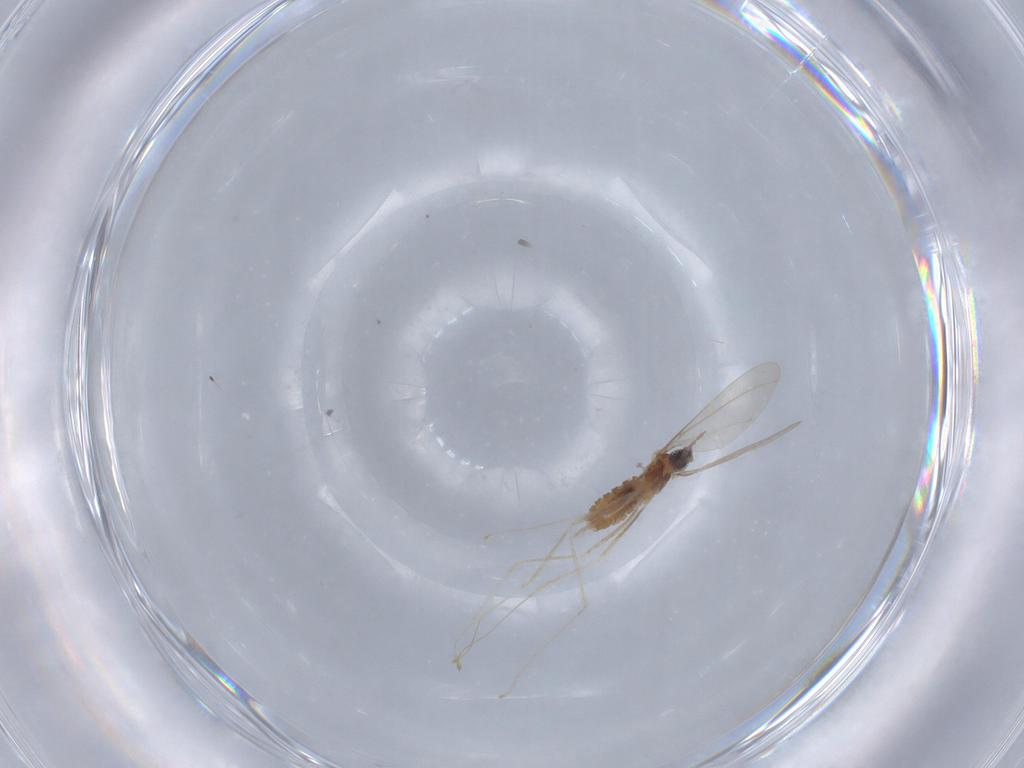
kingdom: Animalia
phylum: Arthropoda
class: Insecta
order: Diptera
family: Cecidomyiidae
